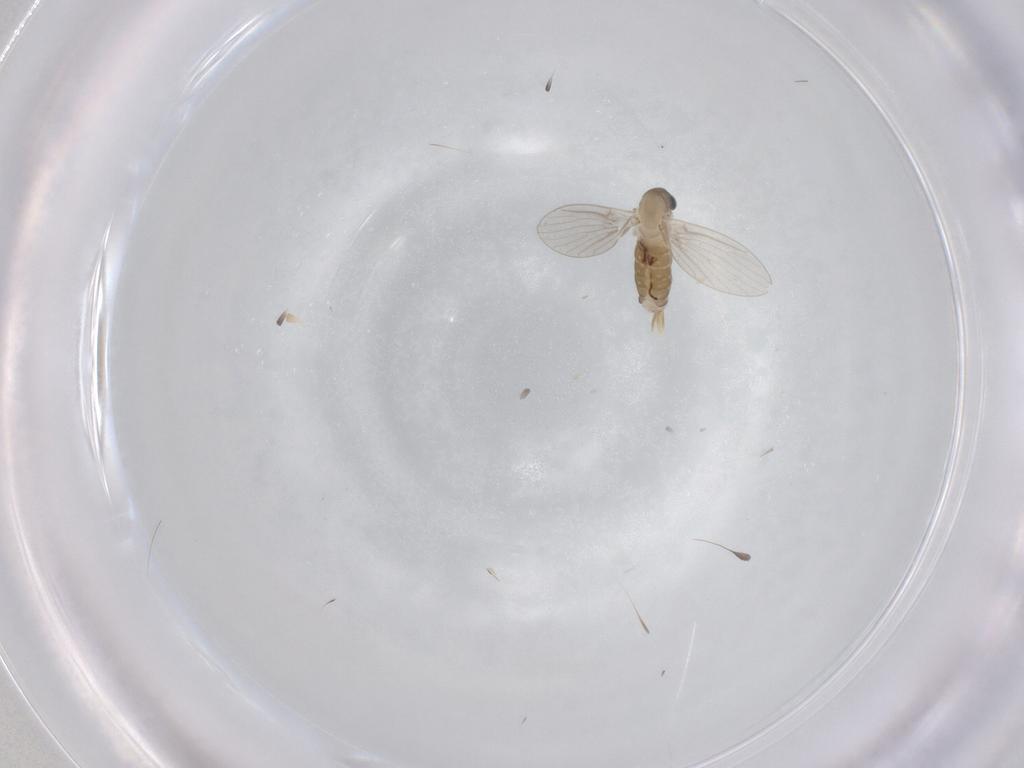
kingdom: Animalia
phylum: Arthropoda
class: Insecta
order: Diptera
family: Psychodidae
